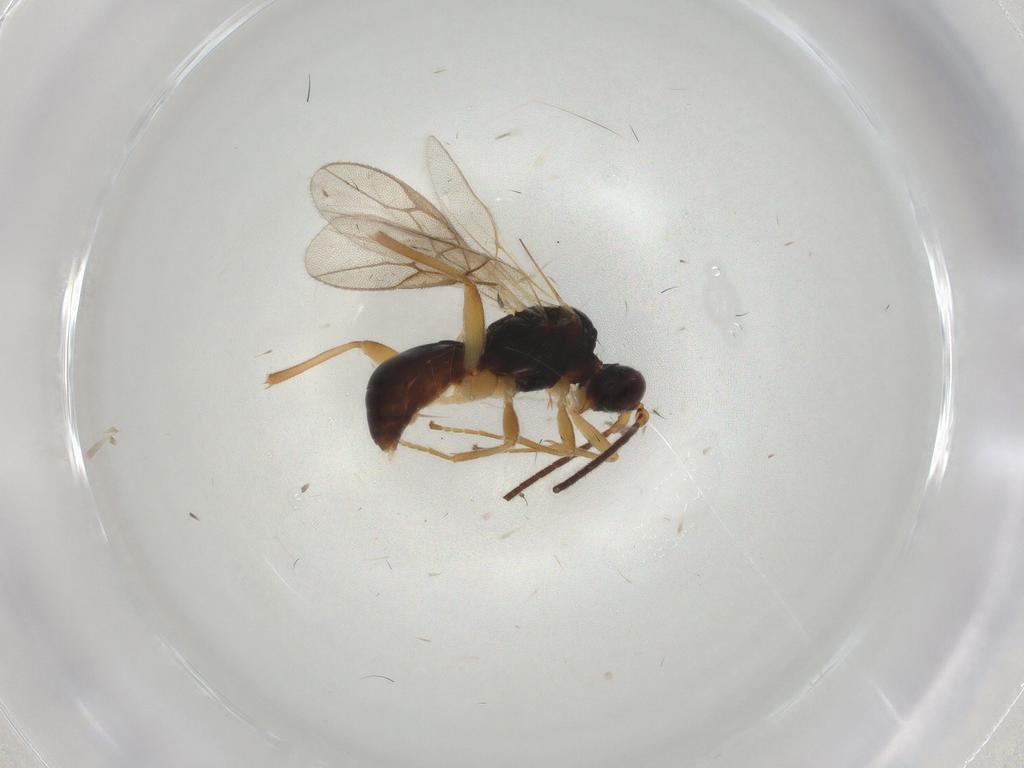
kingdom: Animalia
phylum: Arthropoda
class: Insecta
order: Hymenoptera
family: Braconidae
